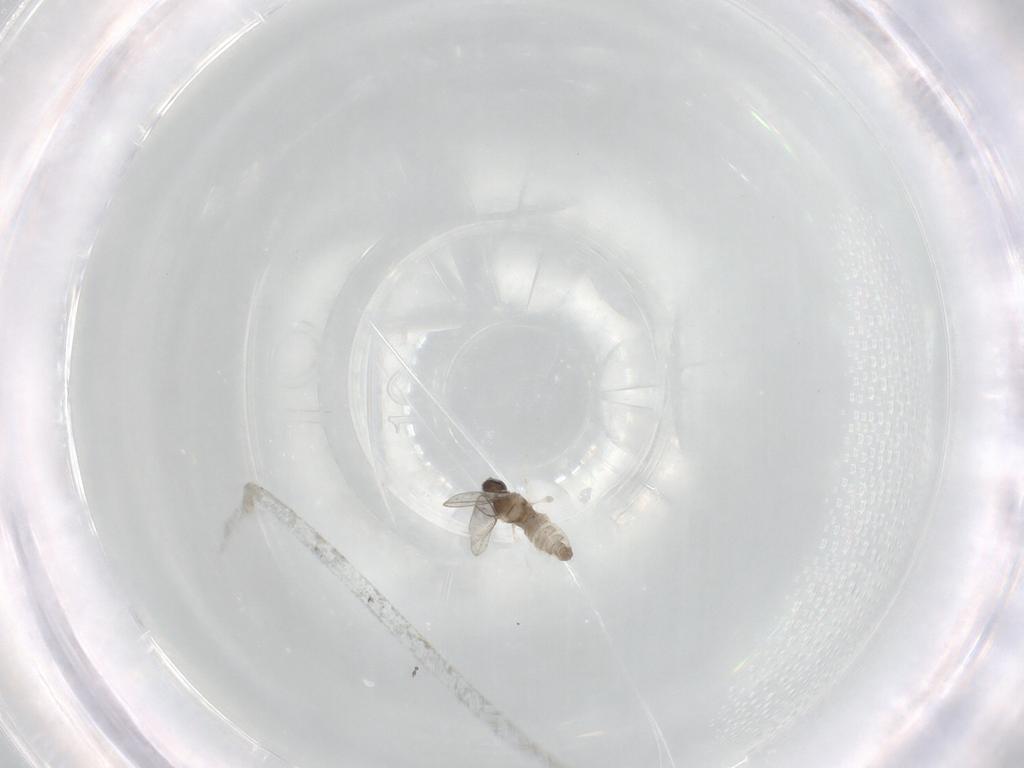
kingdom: Animalia
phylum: Arthropoda
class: Insecta
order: Diptera
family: Cecidomyiidae
